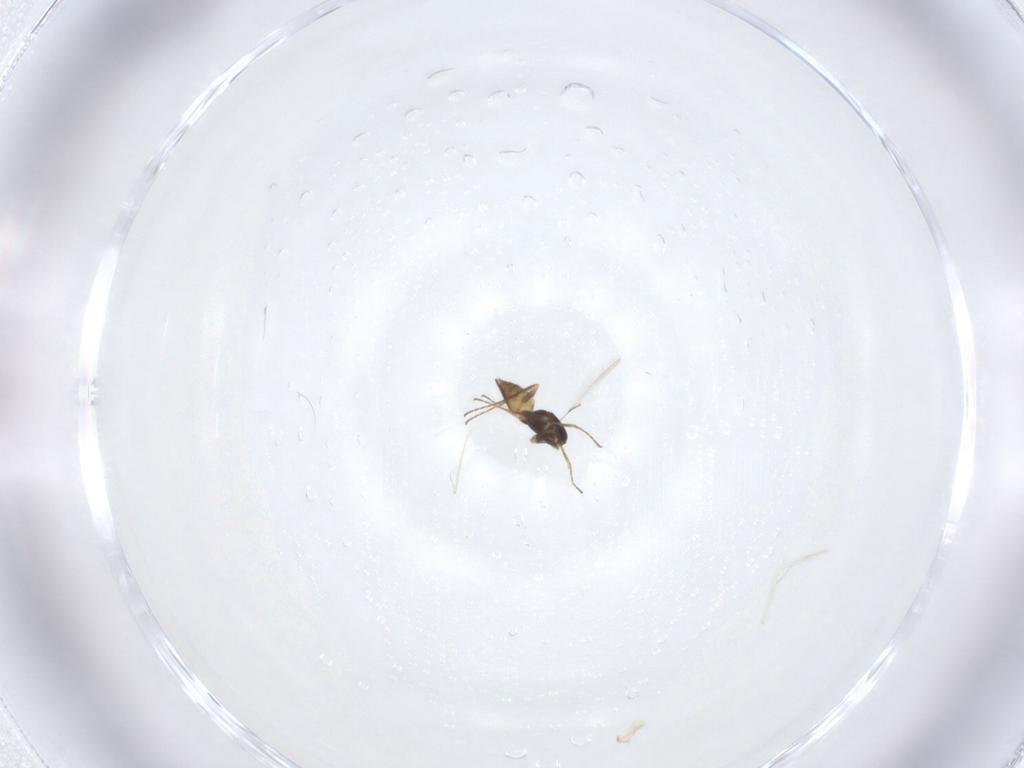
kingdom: Animalia
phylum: Arthropoda
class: Insecta
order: Hymenoptera
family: Mymaridae
